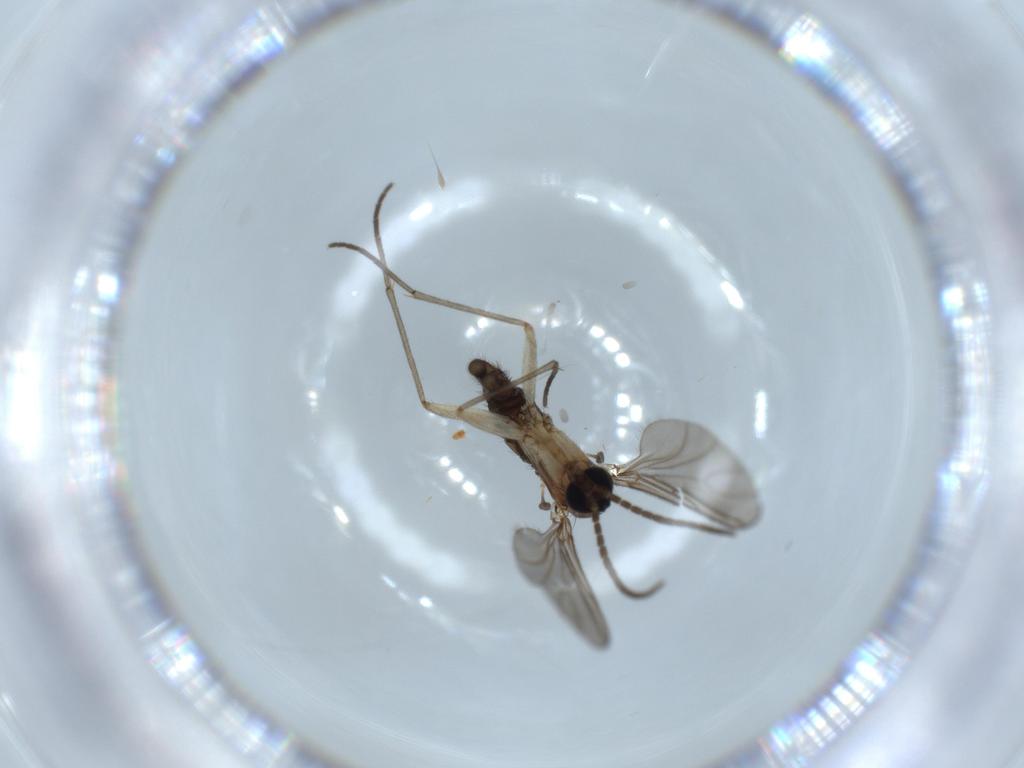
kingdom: Animalia
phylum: Arthropoda
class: Insecta
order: Diptera
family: Sciaridae
